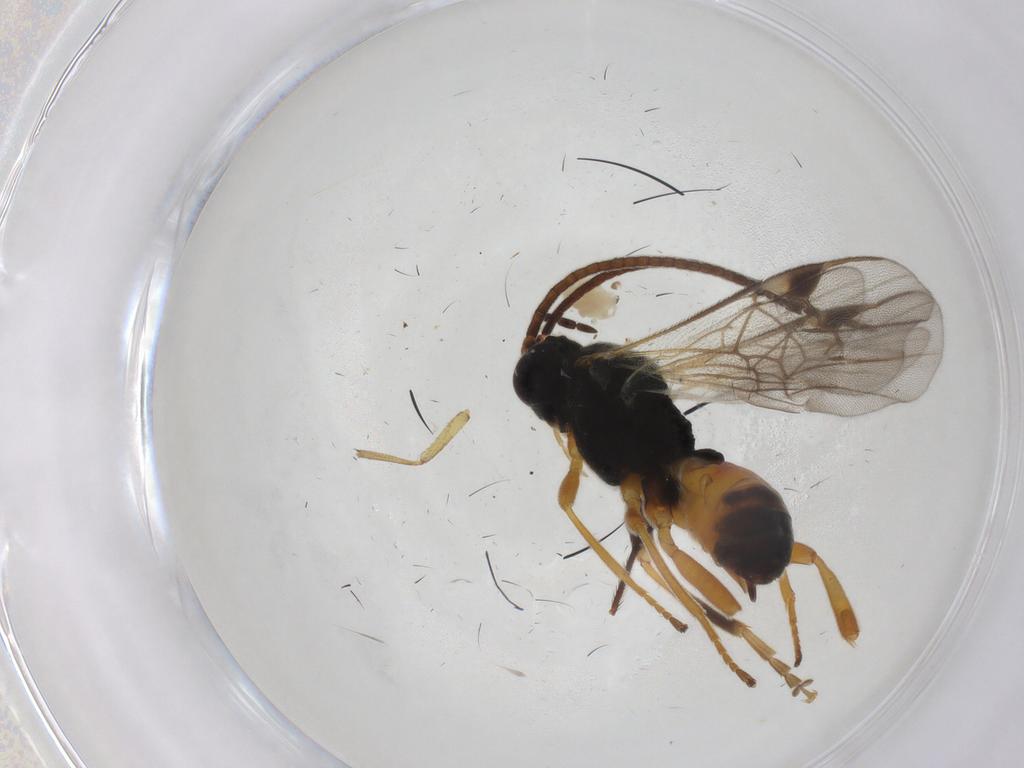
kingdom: Animalia
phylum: Arthropoda
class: Insecta
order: Hymenoptera
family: Braconidae
